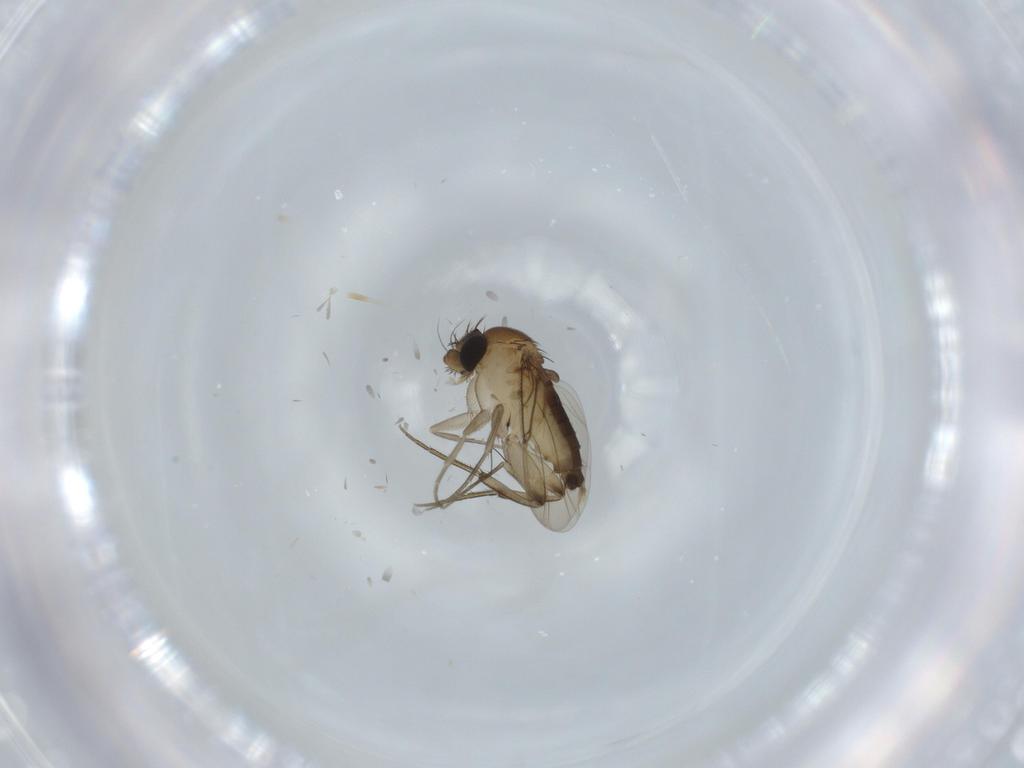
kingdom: Animalia
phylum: Arthropoda
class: Insecta
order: Diptera
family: Phoridae
